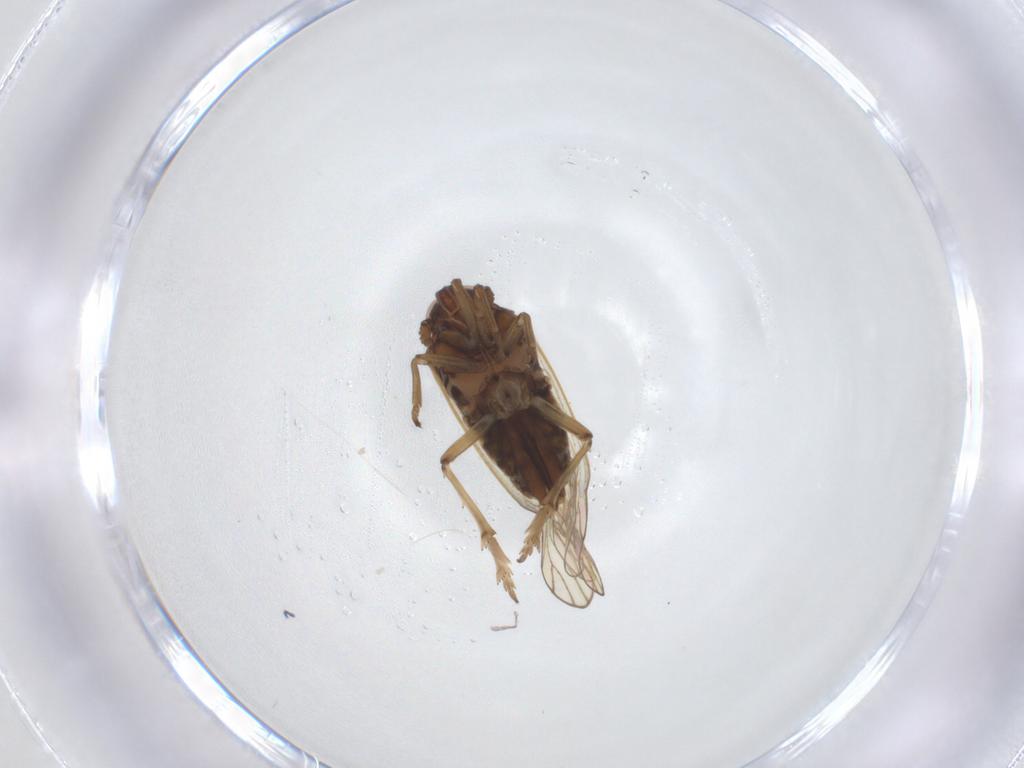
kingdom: Animalia
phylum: Arthropoda
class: Insecta
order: Hemiptera
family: Delphacidae
